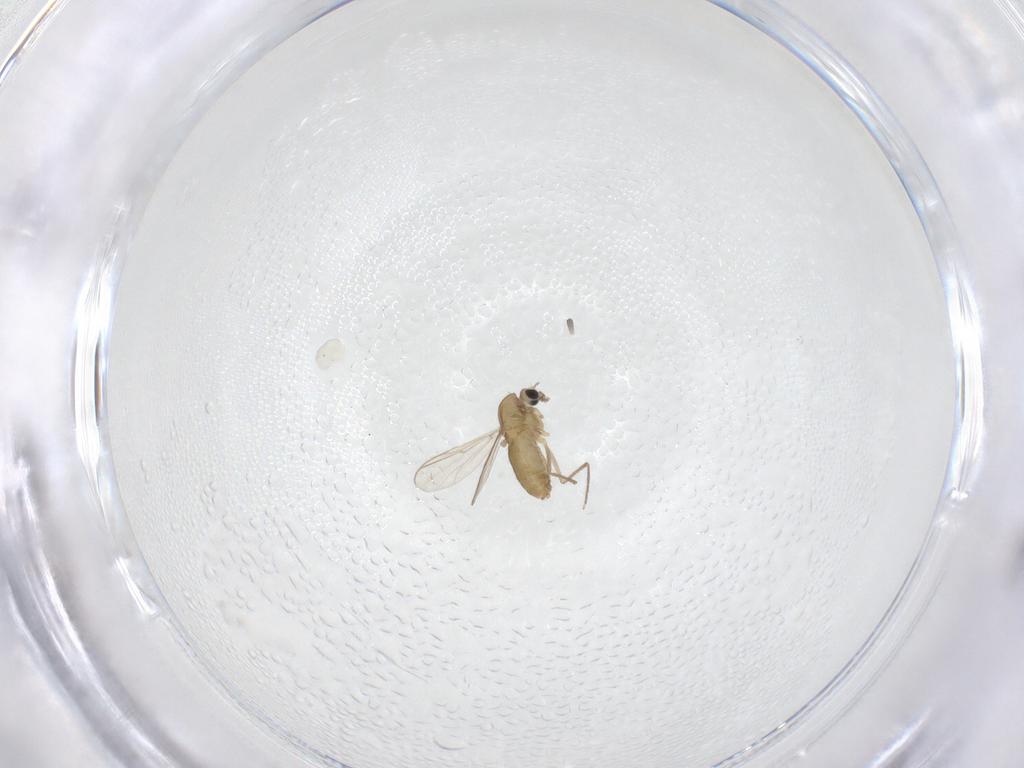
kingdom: Animalia
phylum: Arthropoda
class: Insecta
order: Diptera
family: Chironomidae
